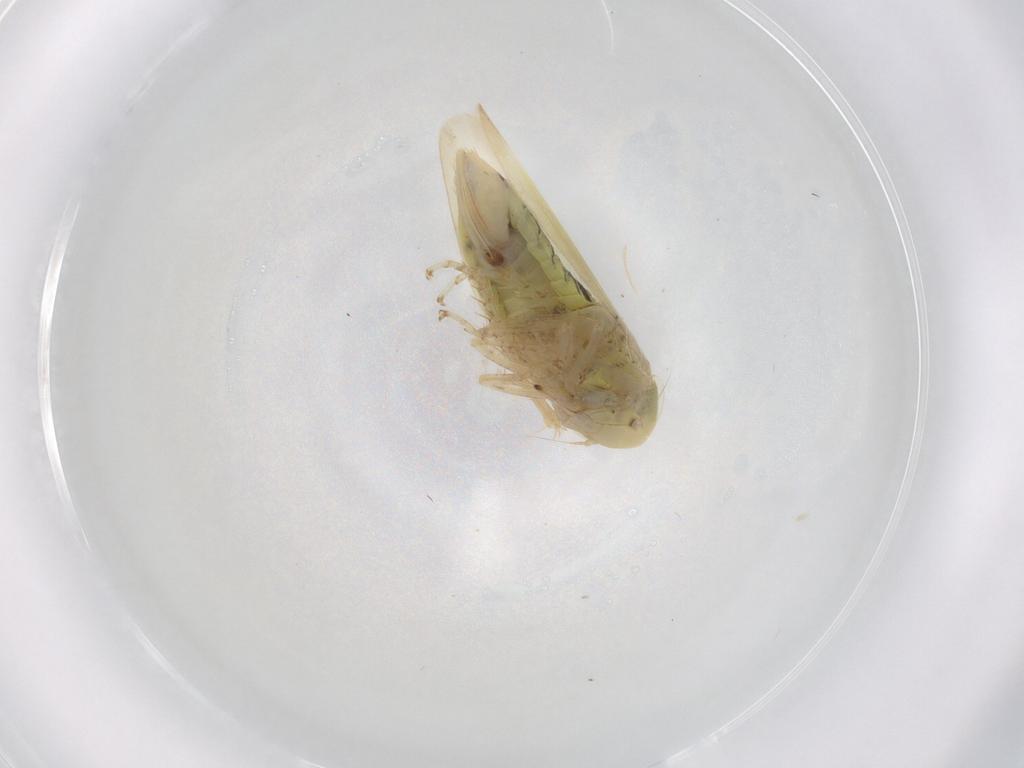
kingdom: Animalia
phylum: Arthropoda
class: Insecta
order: Hemiptera
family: Cicadellidae
